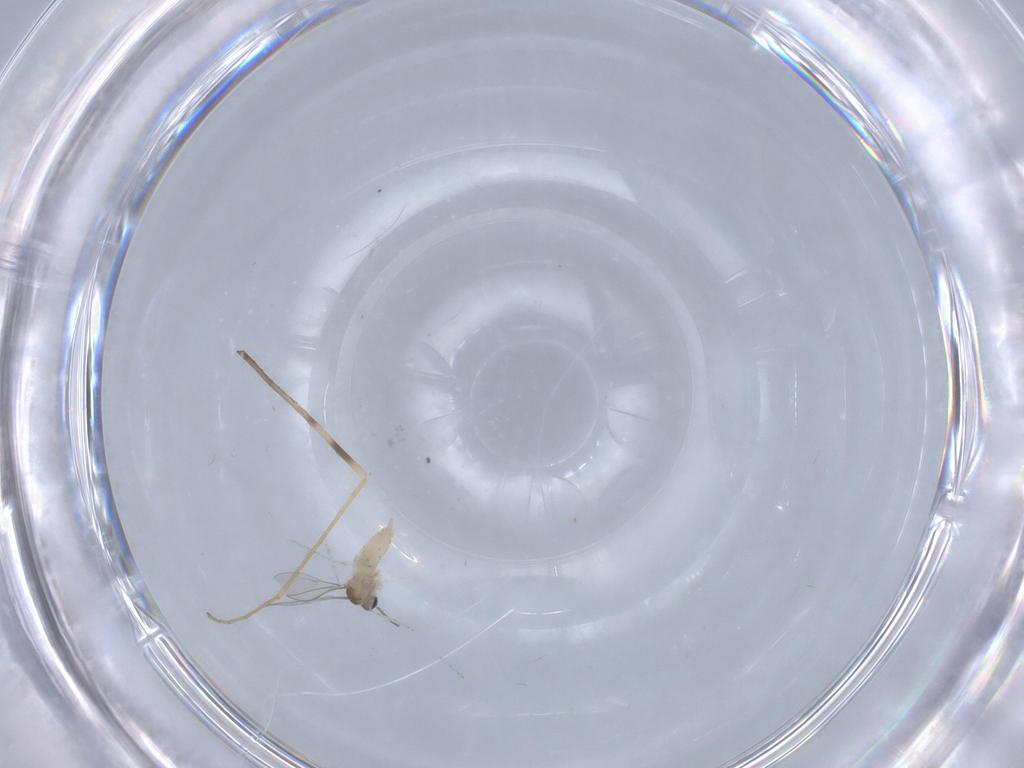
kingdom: Animalia
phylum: Arthropoda
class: Insecta
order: Diptera
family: Cecidomyiidae
